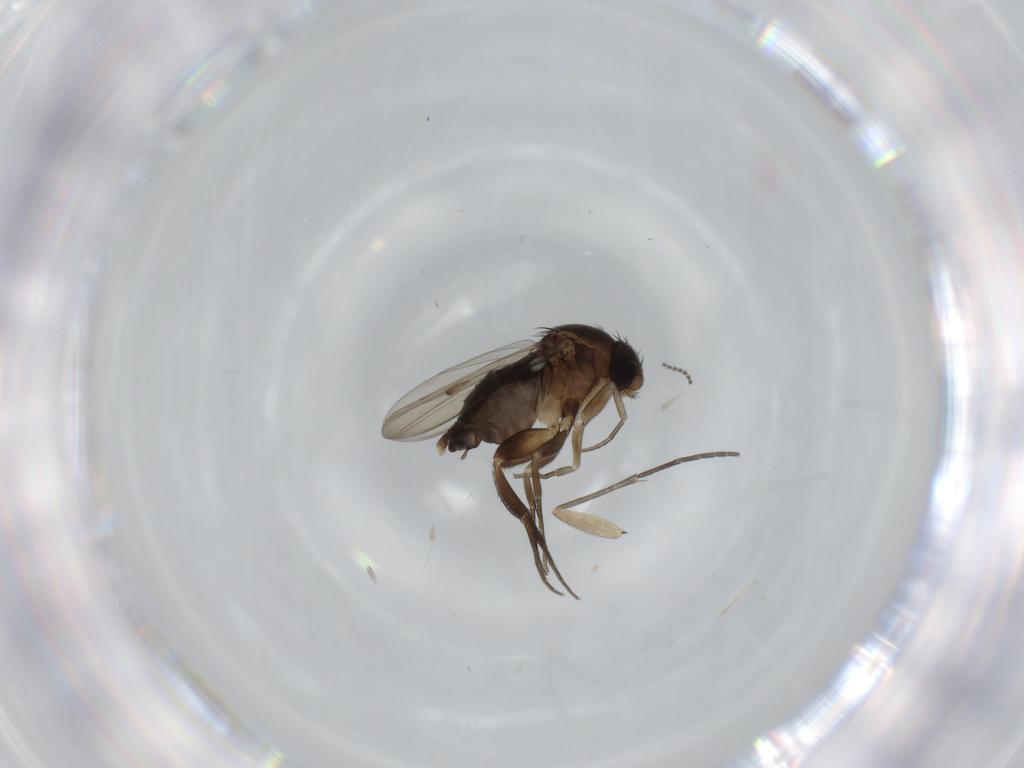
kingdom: Animalia
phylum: Arthropoda
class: Insecta
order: Diptera
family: Phoridae
